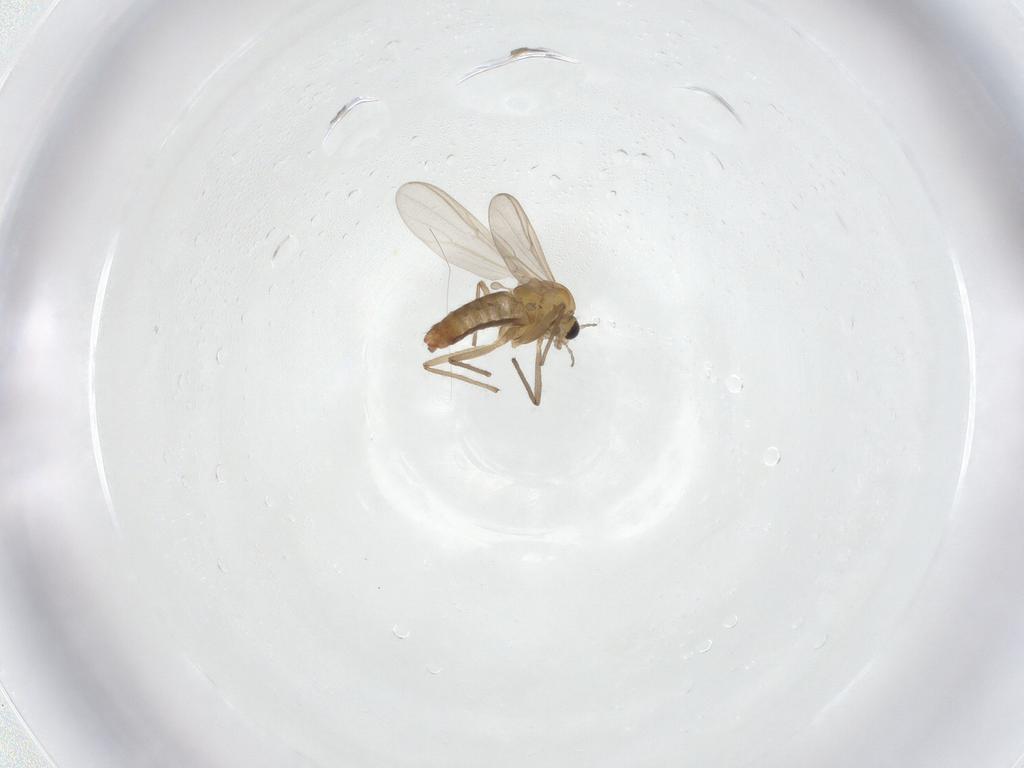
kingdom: Animalia
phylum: Arthropoda
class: Insecta
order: Diptera
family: Chironomidae
